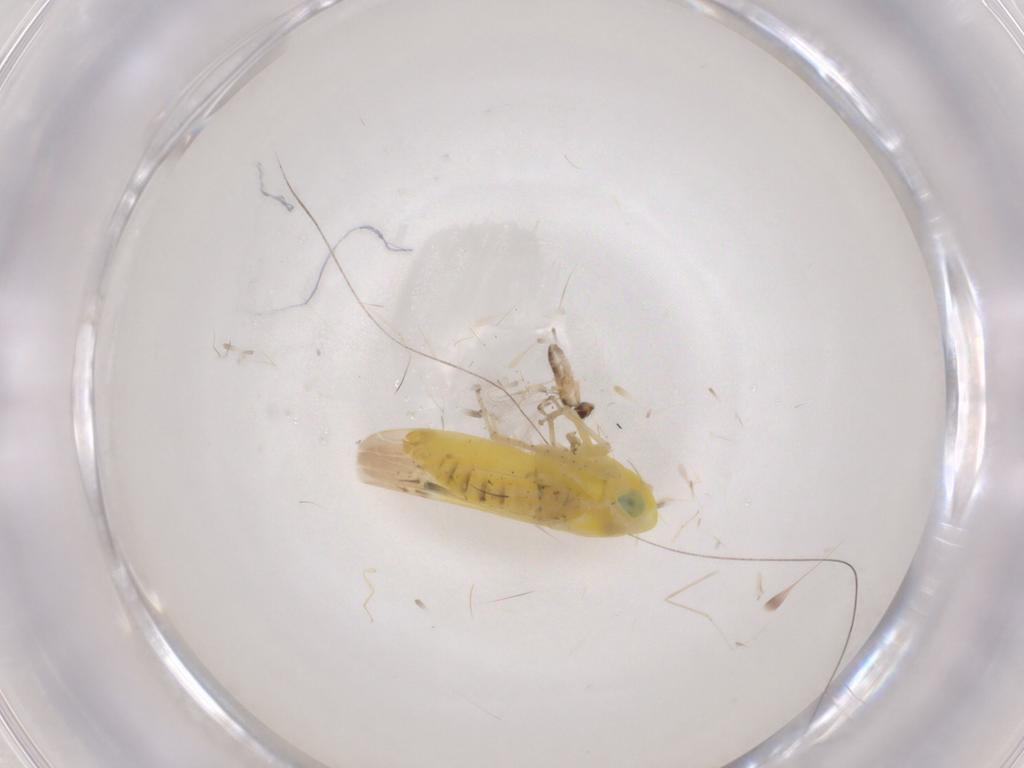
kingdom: Animalia
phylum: Arthropoda
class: Insecta
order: Hemiptera
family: Cicadellidae
